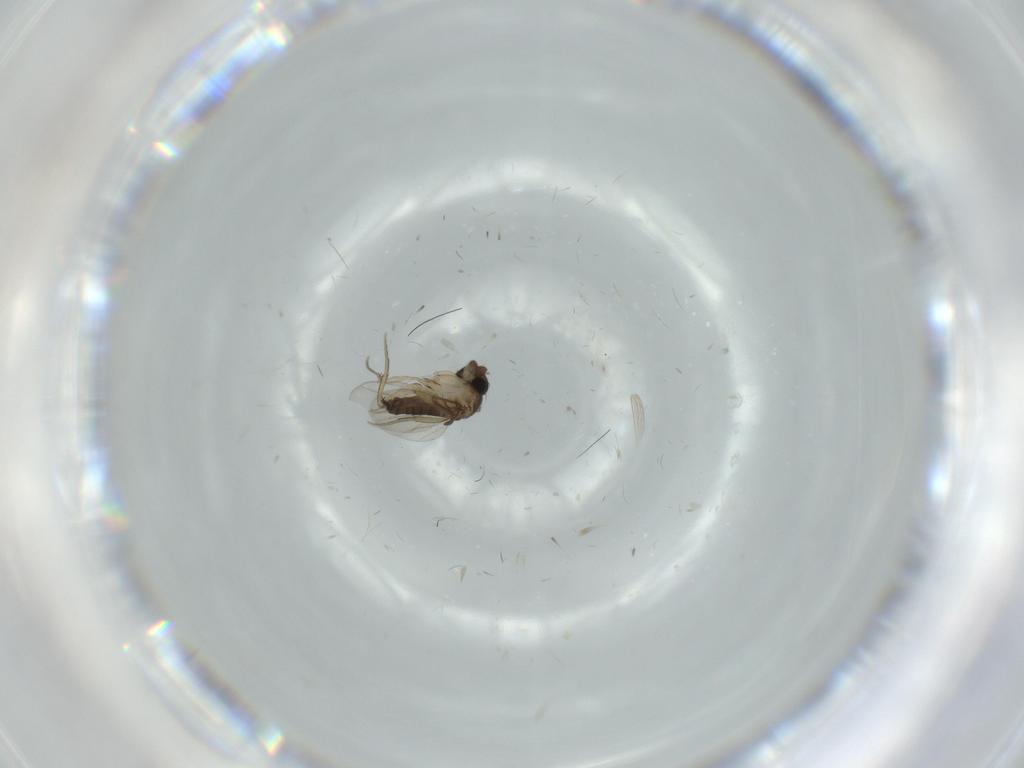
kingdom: Animalia
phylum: Arthropoda
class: Insecta
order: Diptera
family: Phoridae
